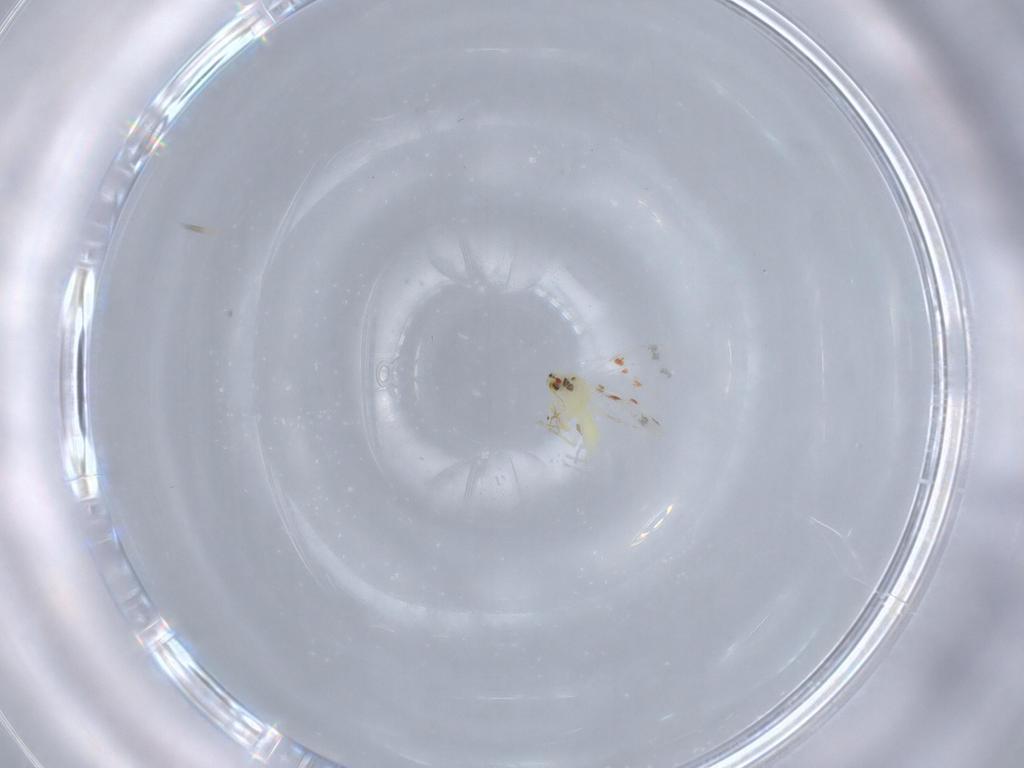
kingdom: Animalia
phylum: Arthropoda
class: Insecta
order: Hemiptera
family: Aleyrodidae
